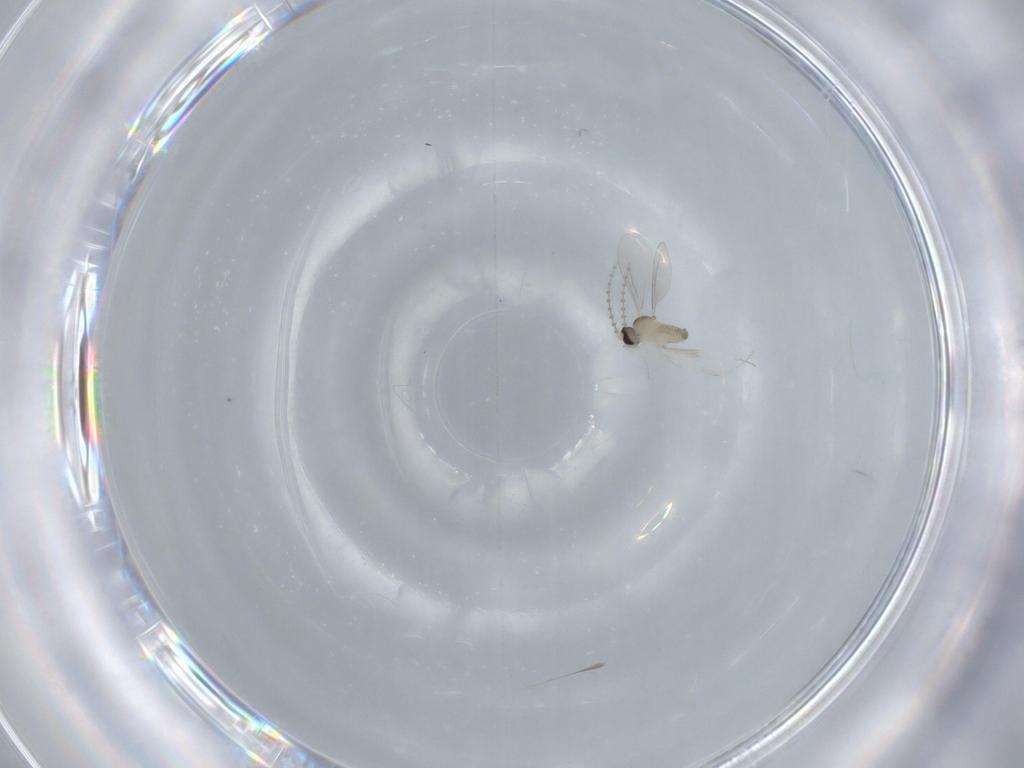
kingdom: Animalia
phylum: Arthropoda
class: Insecta
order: Diptera
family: Cecidomyiidae
